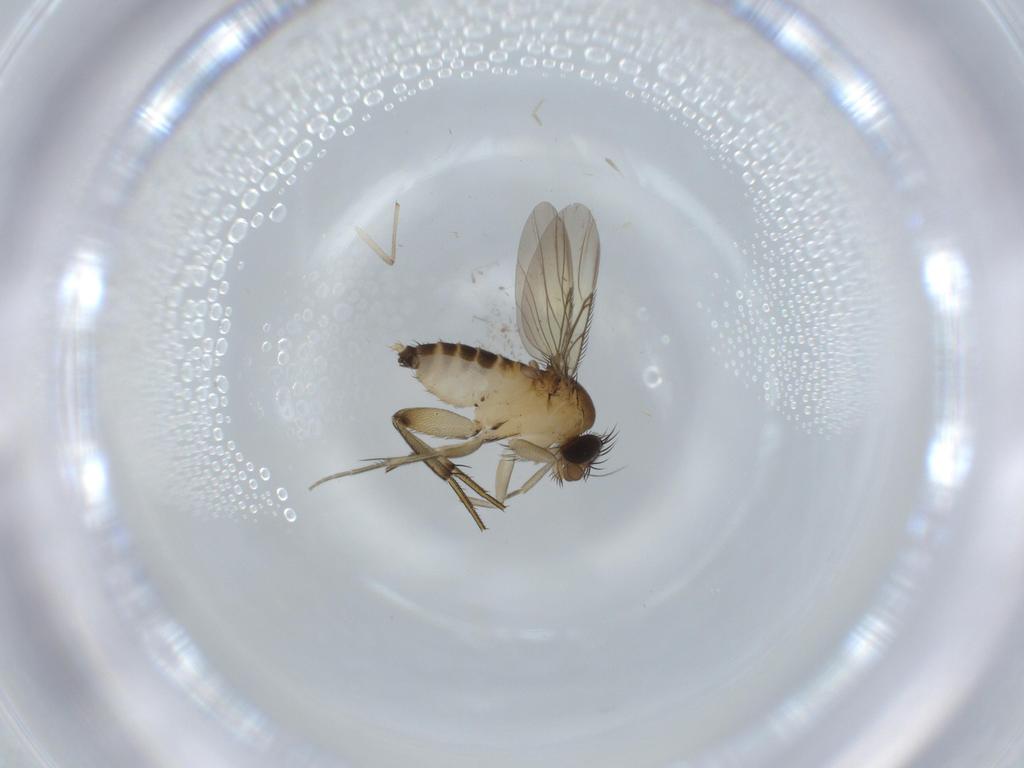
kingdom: Animalia
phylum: Arthropoda
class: Insecta
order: Diptera
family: Phoridae
